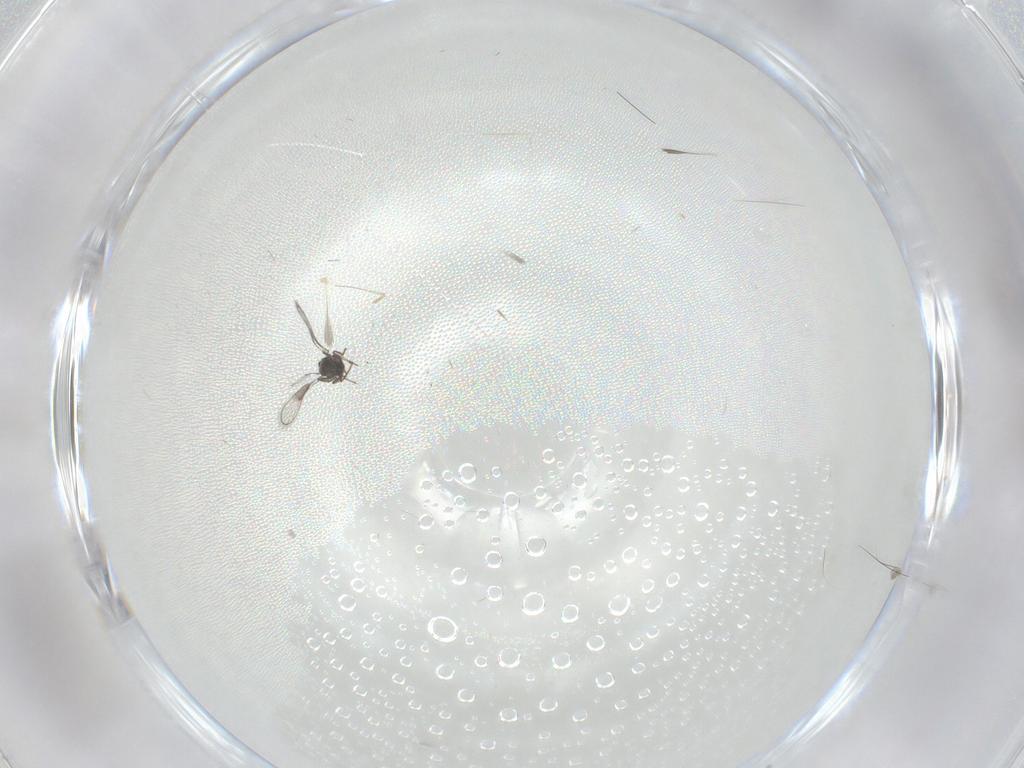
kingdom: Animalia
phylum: Arthropoda
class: Insecta
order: Hymenoptera
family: Trichogrammatidae
